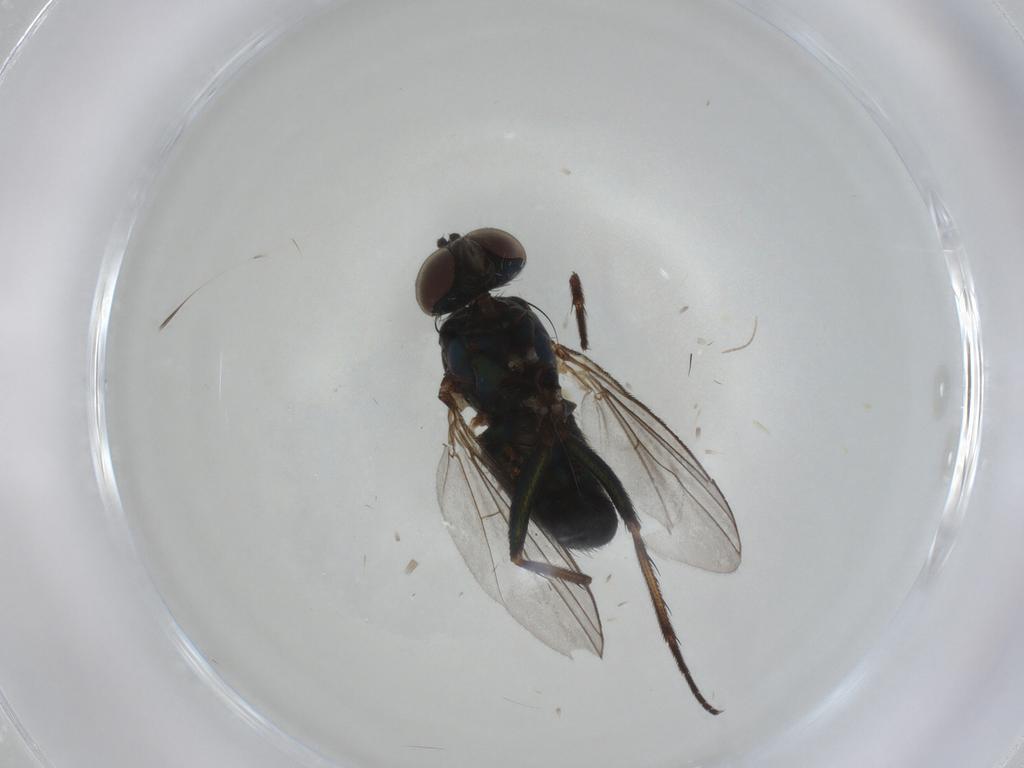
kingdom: Animalia
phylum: Arthropoda
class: Insecta
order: Diptera
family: Dolichopodidae
